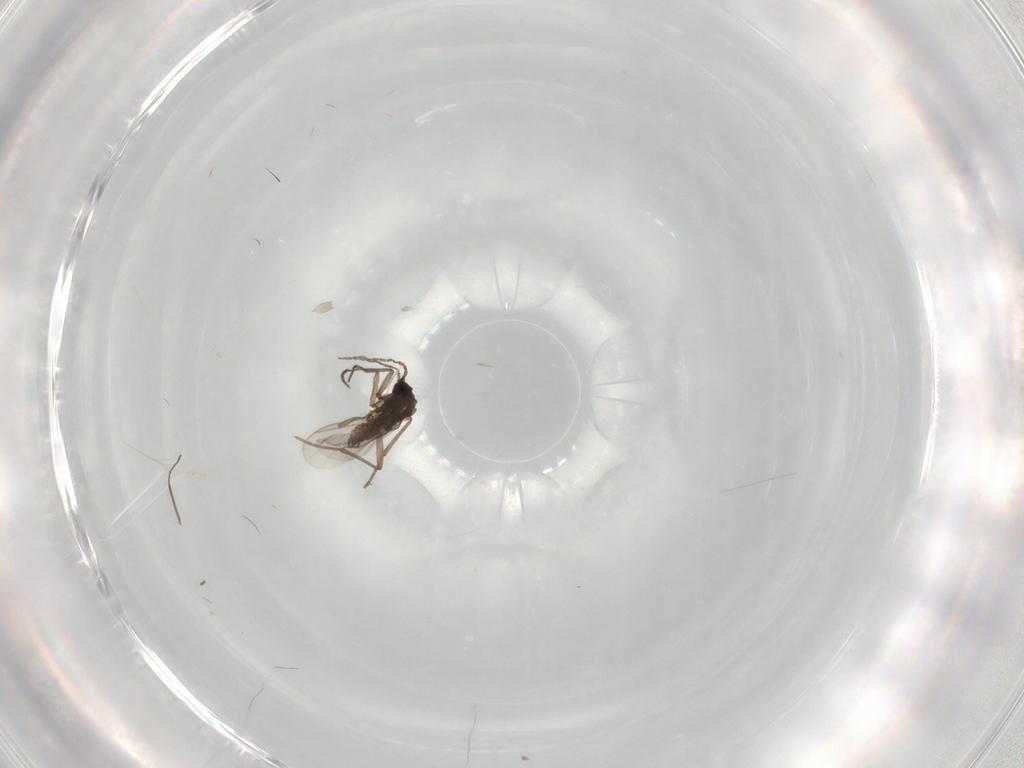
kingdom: Animalia
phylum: Arthropoda
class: Insecta
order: Diptera
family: Sciaridae
